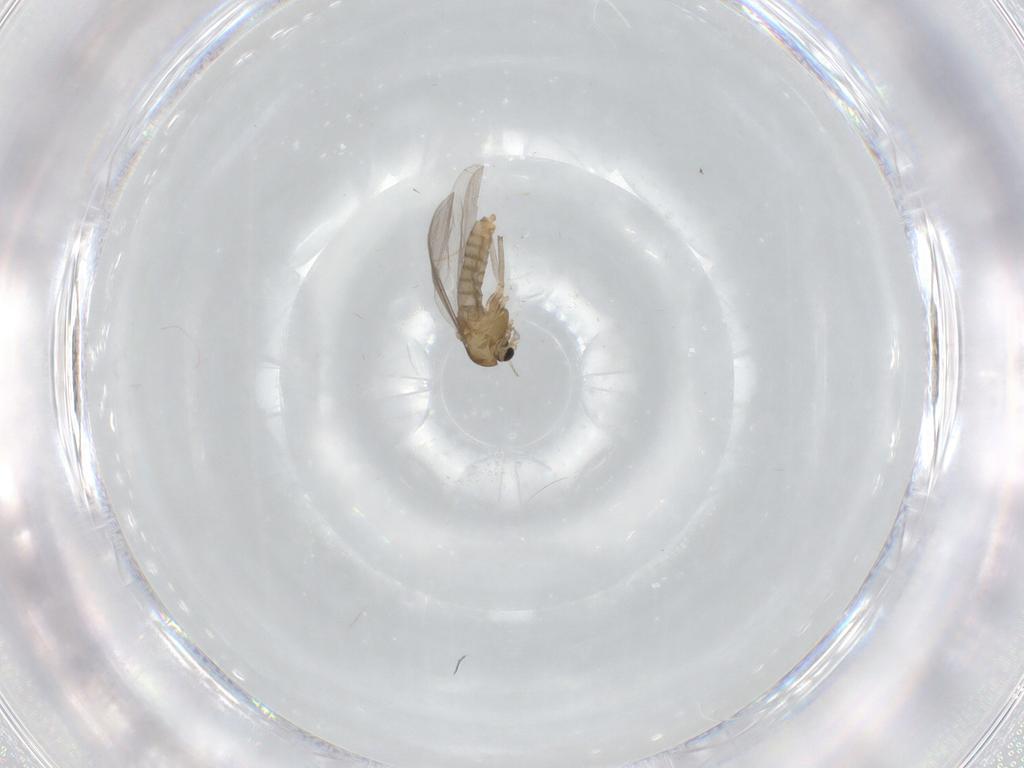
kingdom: Animalia
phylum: Arthropoda
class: Insecta
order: Diptera
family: Chironomidae
